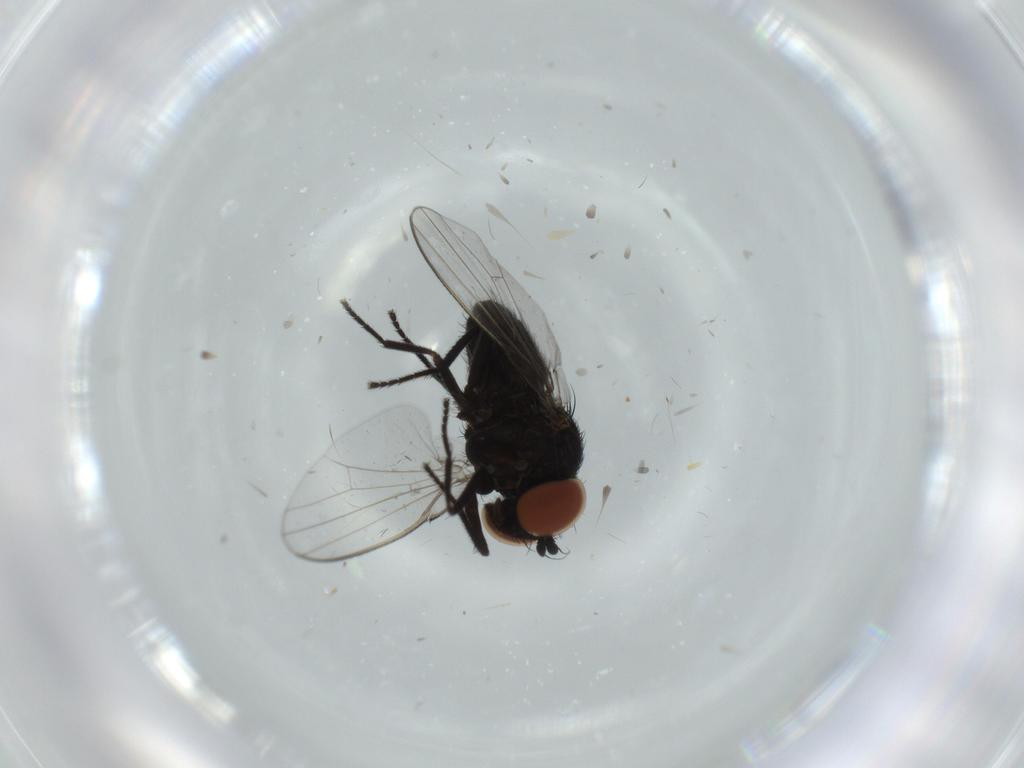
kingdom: Animalia
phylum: Arthropoda
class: Insecta
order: Diptera
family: Milichiidae
